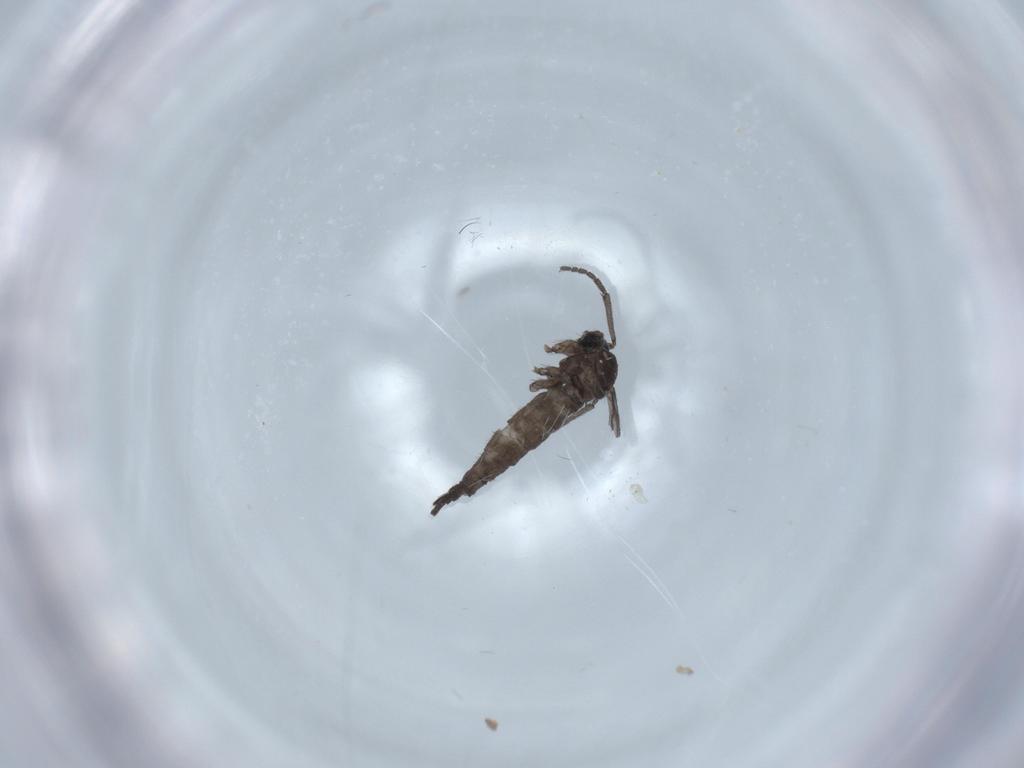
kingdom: Animalia
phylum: Arthropoda
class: Insecta
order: Diptera
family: Sciaridae
